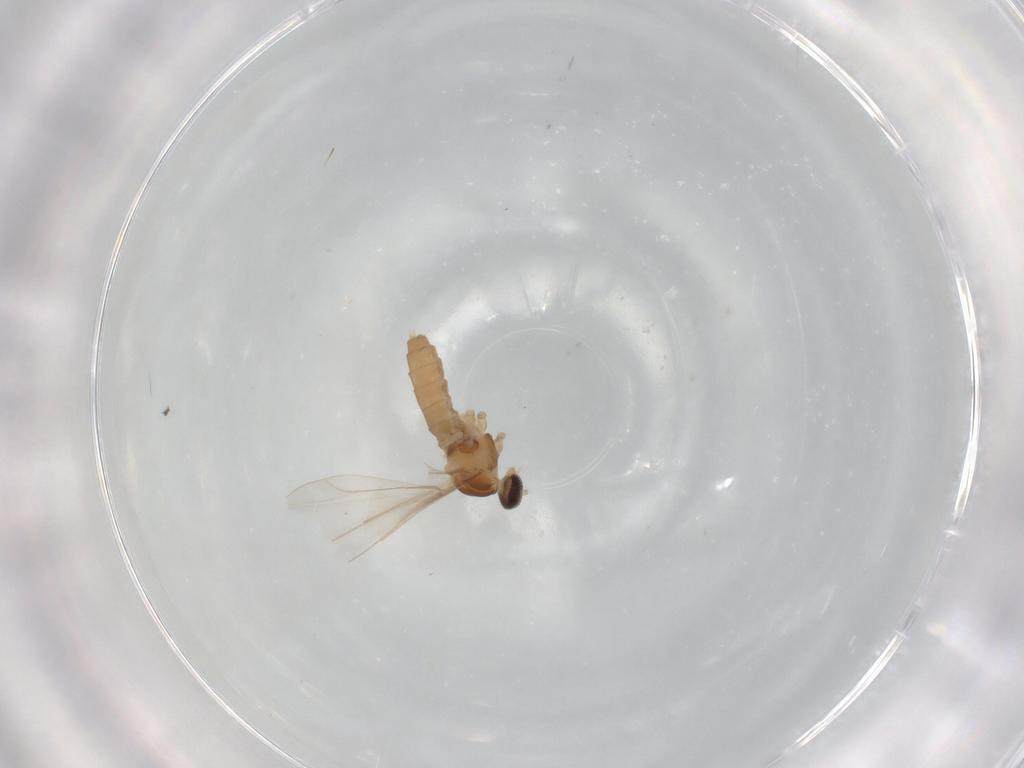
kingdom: Animalia
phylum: Arthropoda
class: Insecta
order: Diptera
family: Cecidomyiidae
